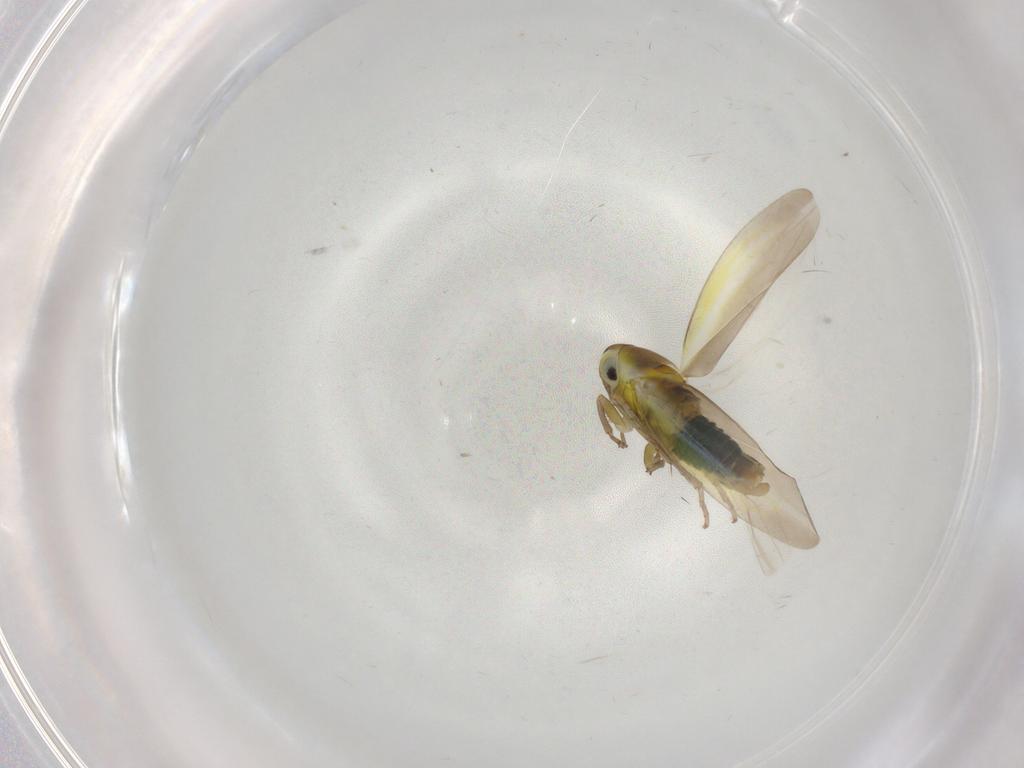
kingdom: Animalia
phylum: Arthropoda
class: Insecta
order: Hemiptera
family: Cicadellidae
